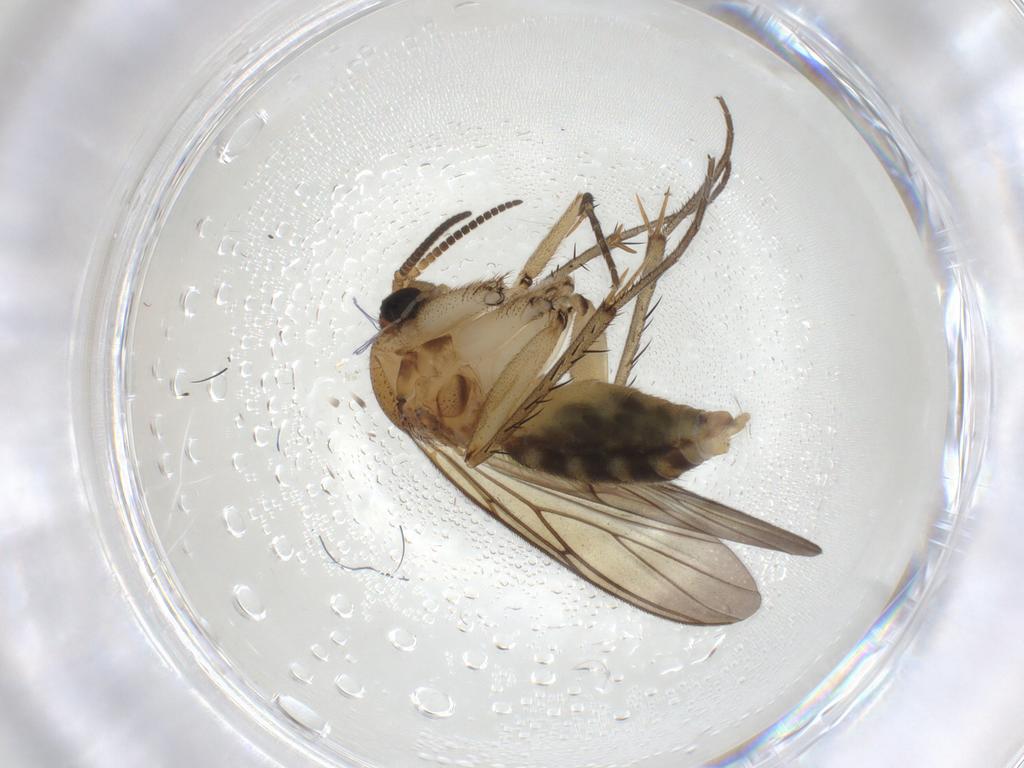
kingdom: Animalia
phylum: Arthropoda
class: Insecta
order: Diptera
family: Mycetophilidae
